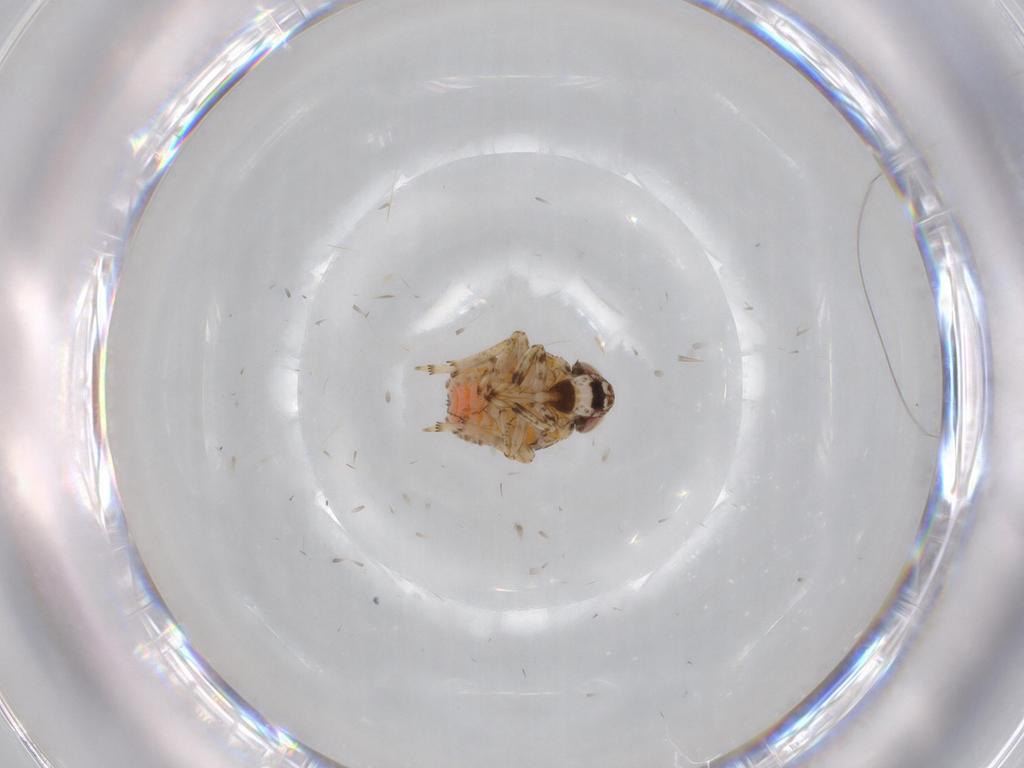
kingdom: Animalia
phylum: Arthropoda
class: Insecta
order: Hemiptera
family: Issidae
